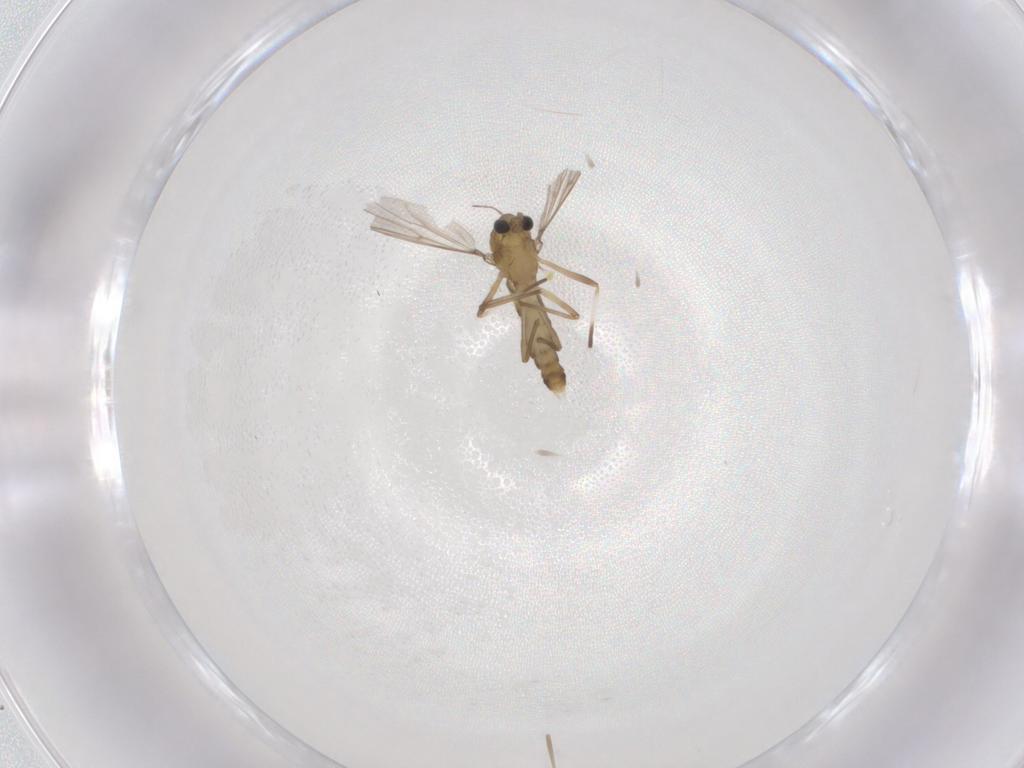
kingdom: Animalia
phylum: Arthropoda
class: Insecta
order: Diptera
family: Chironomidae
